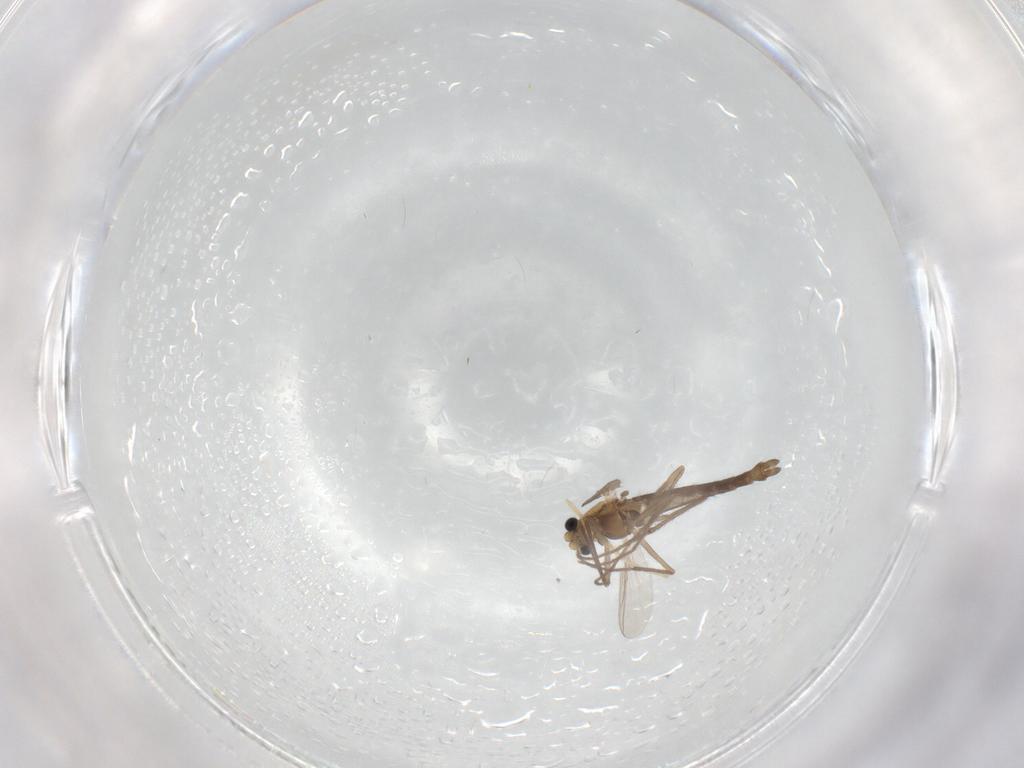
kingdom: Animalia
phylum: Arthropoda
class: Insecta
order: Diptera
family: Chironomidae
